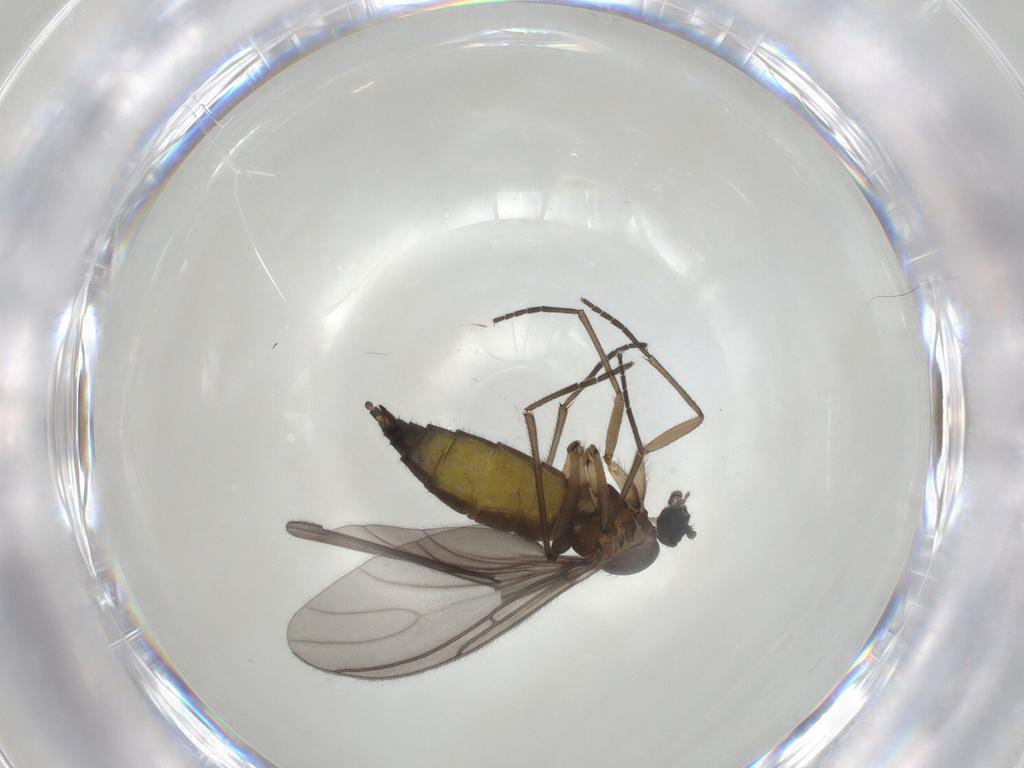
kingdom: Animalia
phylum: Arthropoda
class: Insecta
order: Diptera
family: Sciaridae
